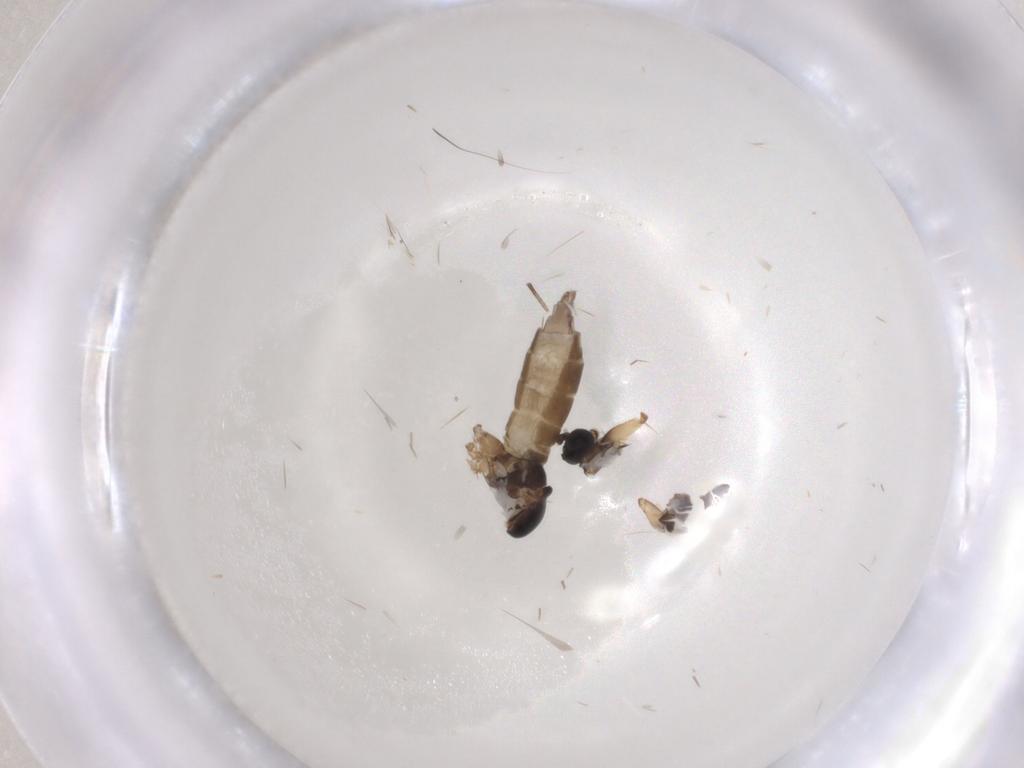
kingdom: Animalia
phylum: Arthropoda
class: Insecta
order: Diptera
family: Sciaridae
